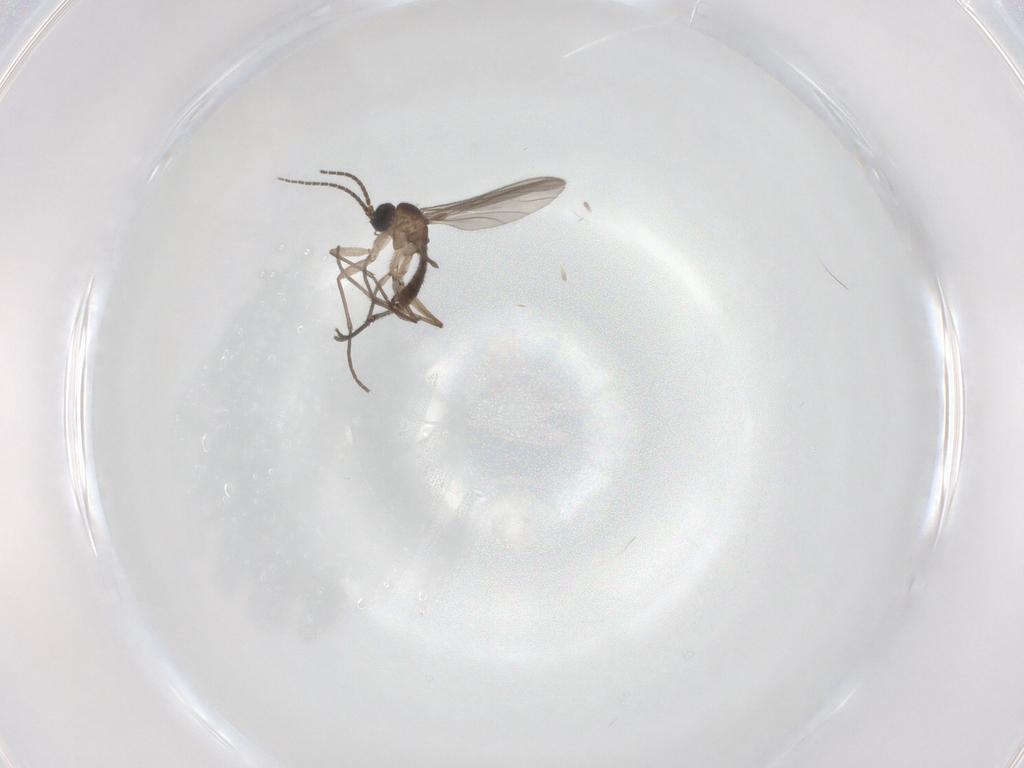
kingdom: Animalia
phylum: Arthropoda
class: Insecta
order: Diptera
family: Sciaridae
